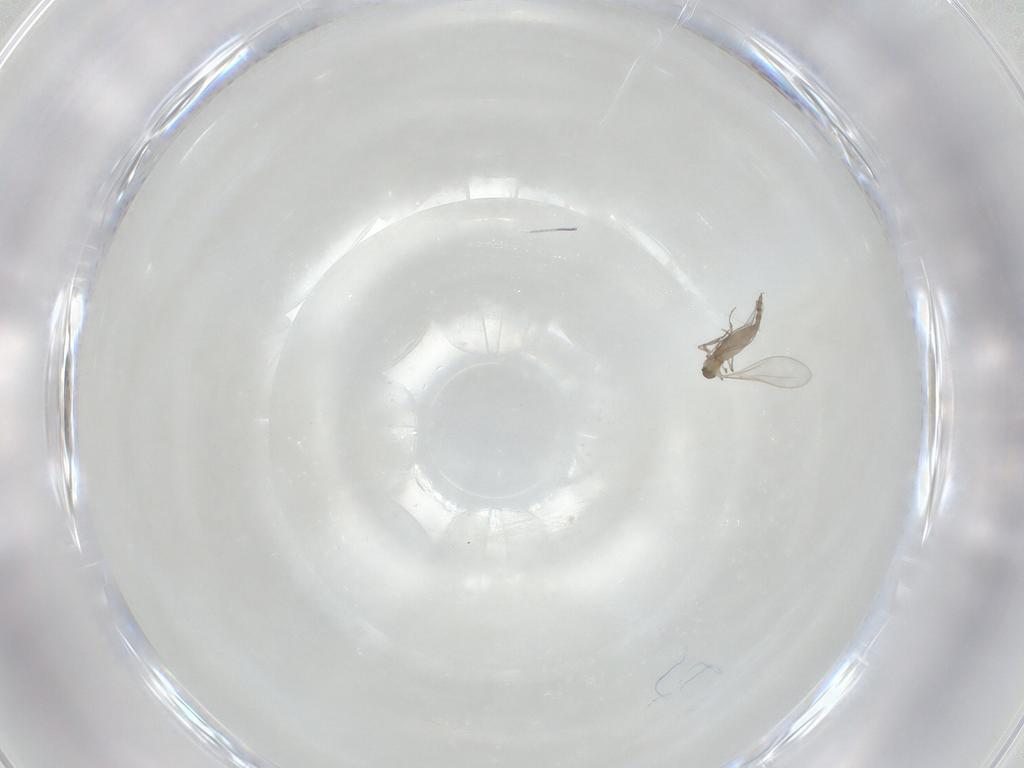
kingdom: Animalia
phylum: Arthropoda
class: Insecta
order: Diptera
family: Cecidomyiidae
